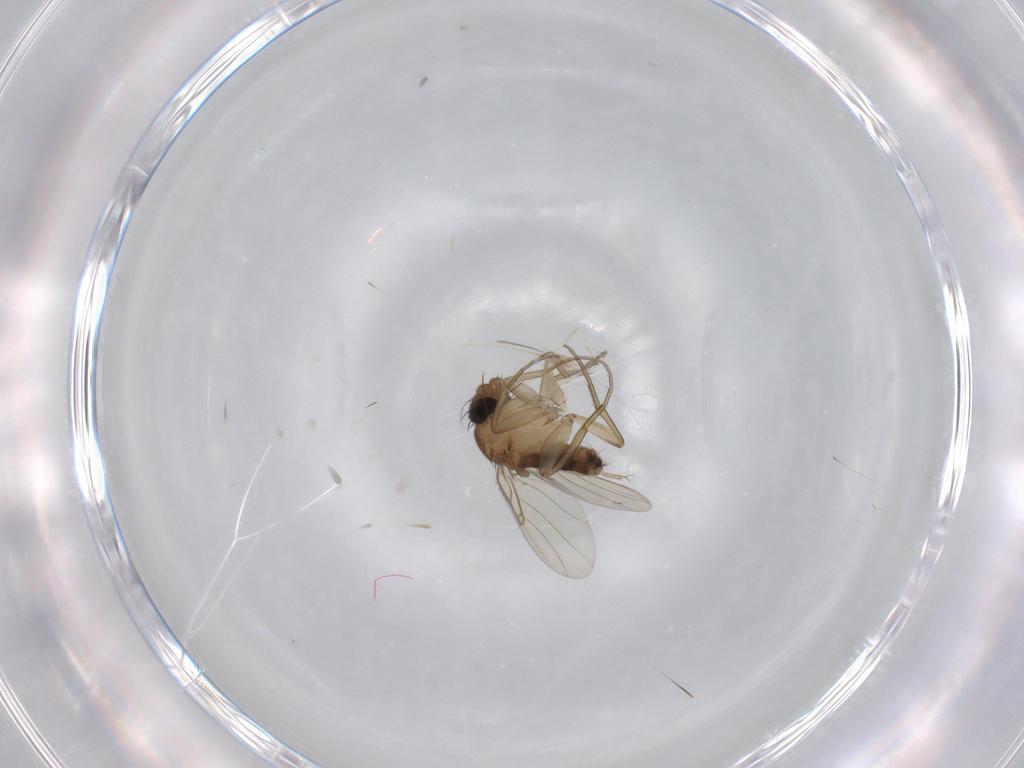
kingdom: Animalia
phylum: Arthropoda
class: Insecta
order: Diptera
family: Phoridae
